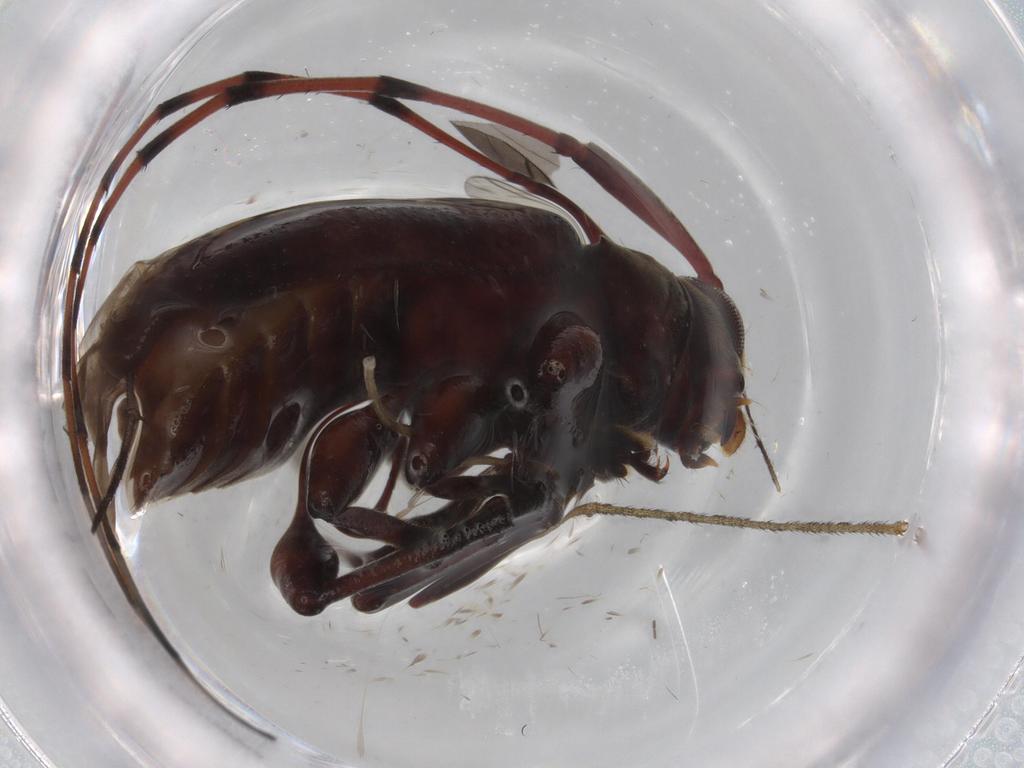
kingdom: Animalia
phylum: Arthropoda
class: Insecta
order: Coleoptera
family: Cerambycidae
